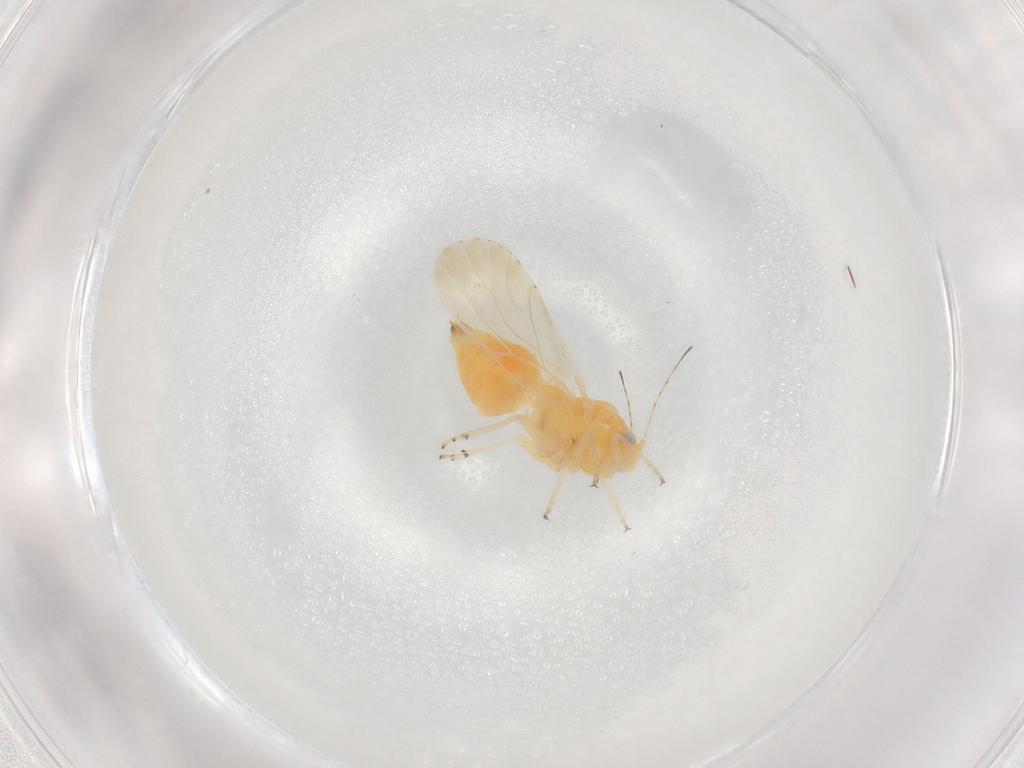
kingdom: Animalia
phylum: Arthropoda
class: Insecta
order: Hemiptera
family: Psyllidae
